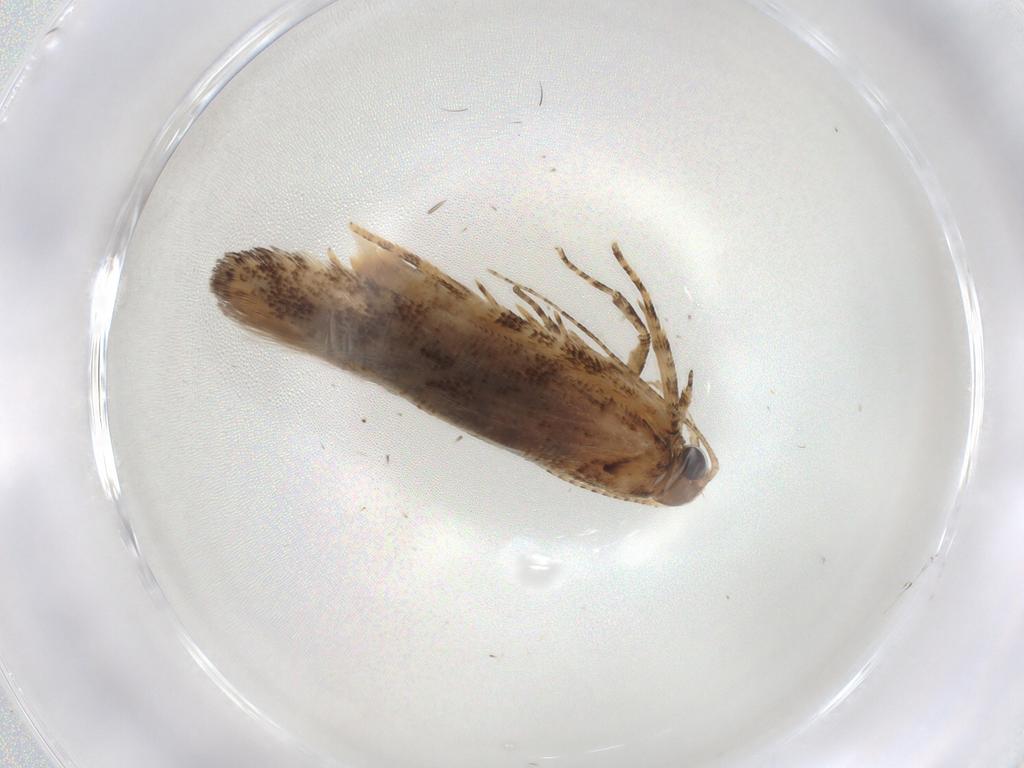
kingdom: Animalia
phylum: Arthropoda
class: Insecta
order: Lepidoptera
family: Gelechiidae
